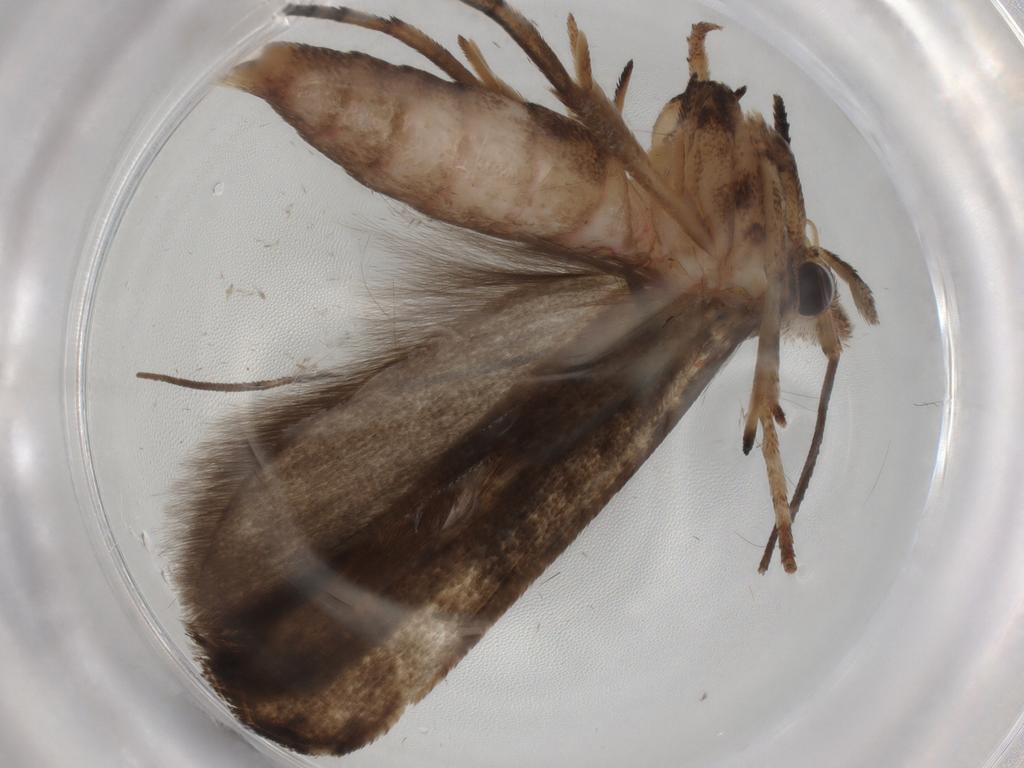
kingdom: Animalia
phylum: Arthropoda
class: Insecta
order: Lepidoptera
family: Yponomeutidae
